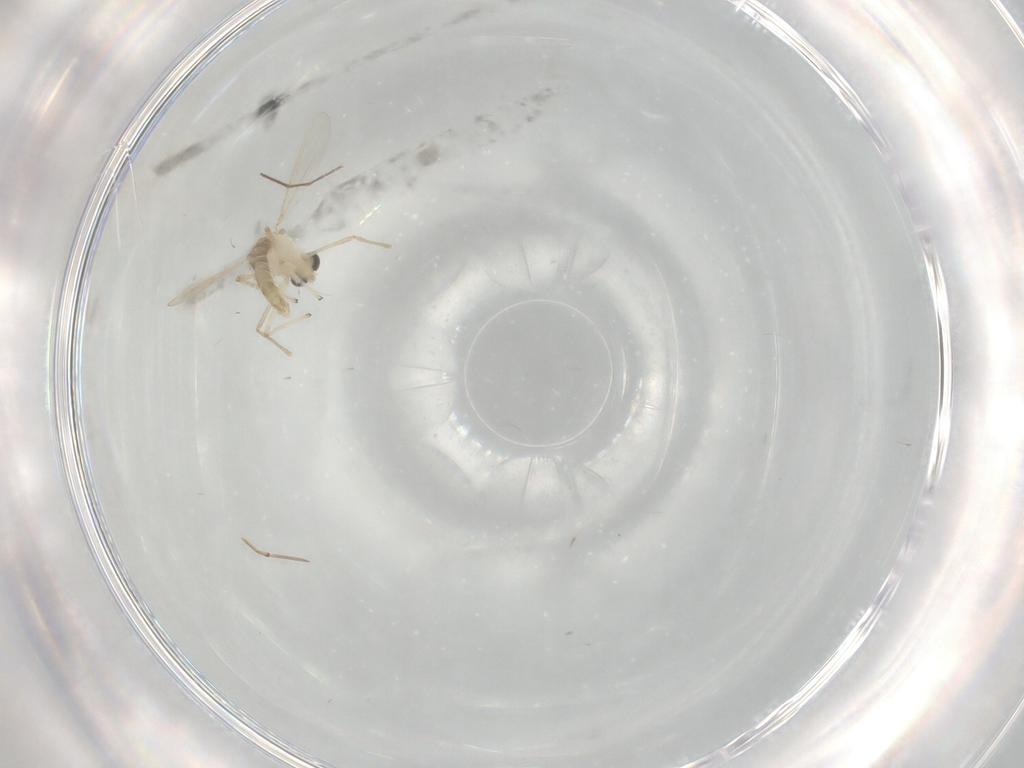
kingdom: Animalia
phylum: Arthropoda
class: Insecta
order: Diptera
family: Chironomidae
